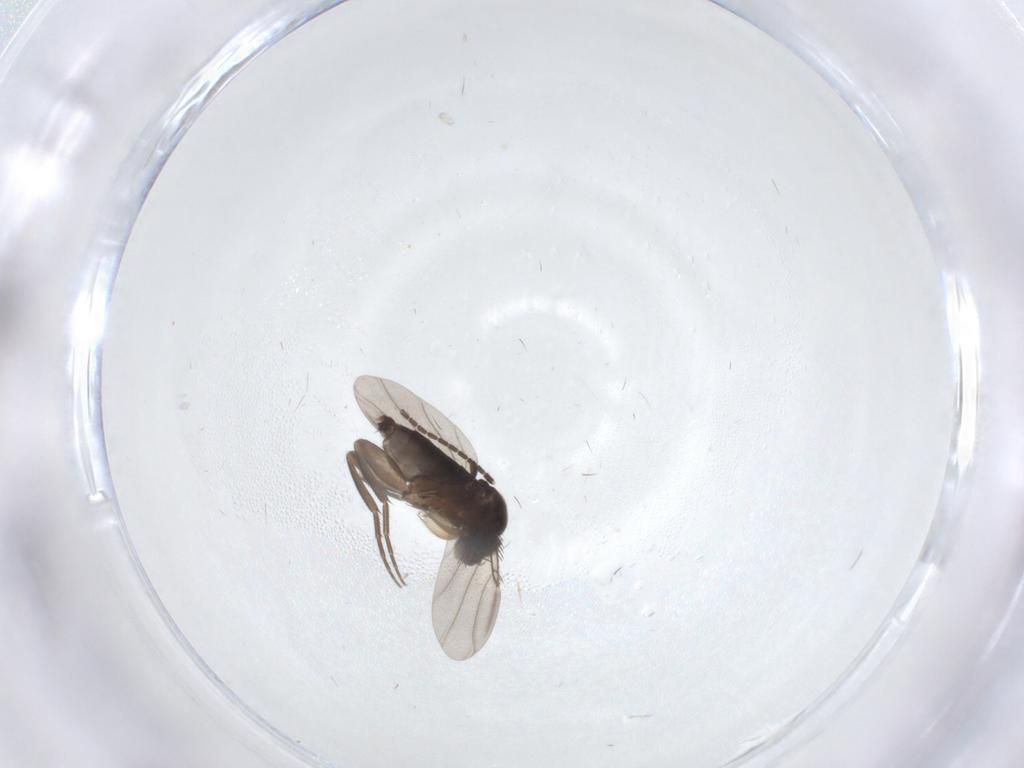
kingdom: Animalia
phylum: Arthropoda
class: Insecta
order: Diptera
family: Phoridae
